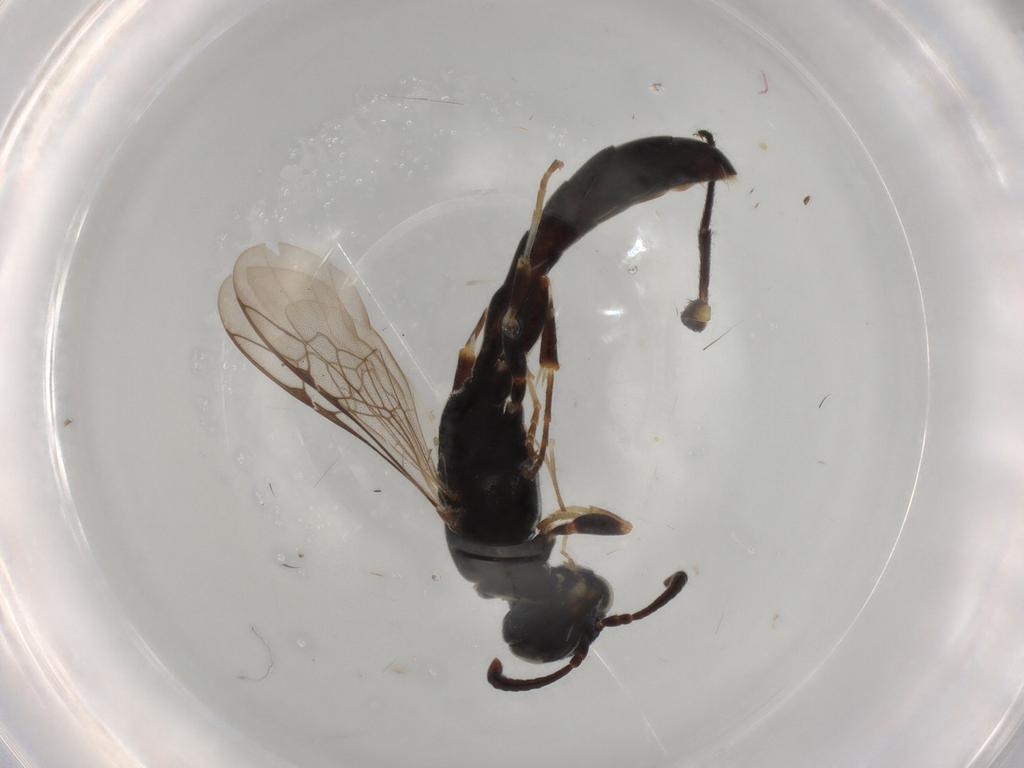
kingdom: Animalia
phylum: Arthropoda
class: Insecta
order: Hymenoptera
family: Crabronidae
